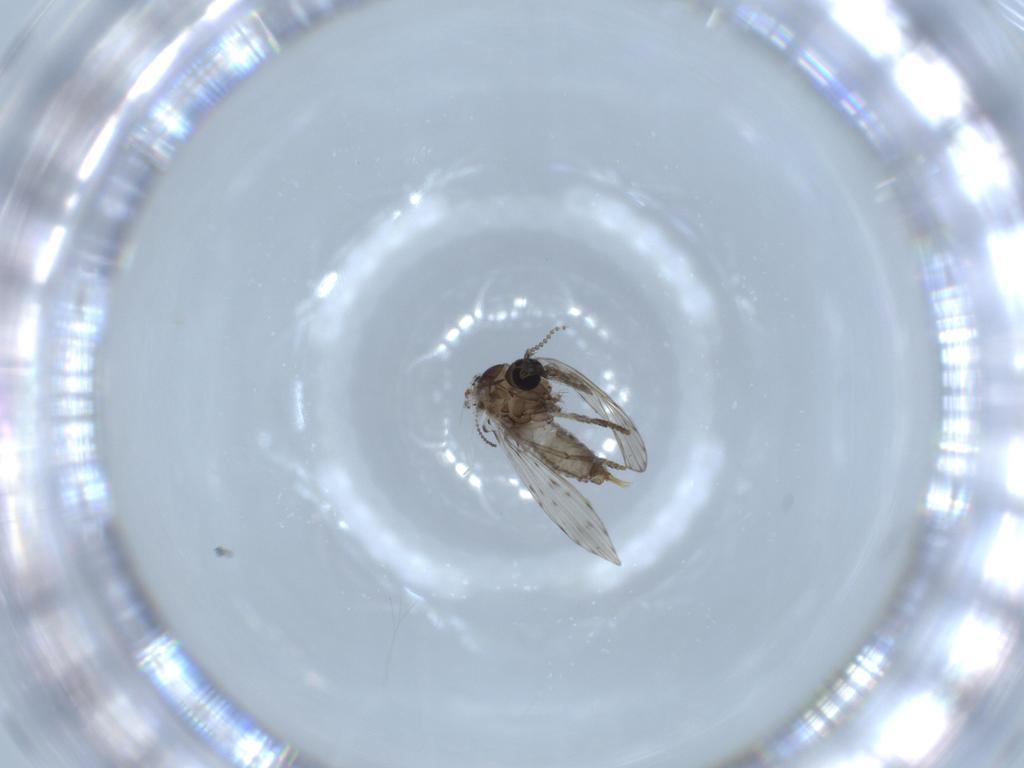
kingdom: Animalia
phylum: Arthropoda
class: Insecta
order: Diptera
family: Psychodidae
